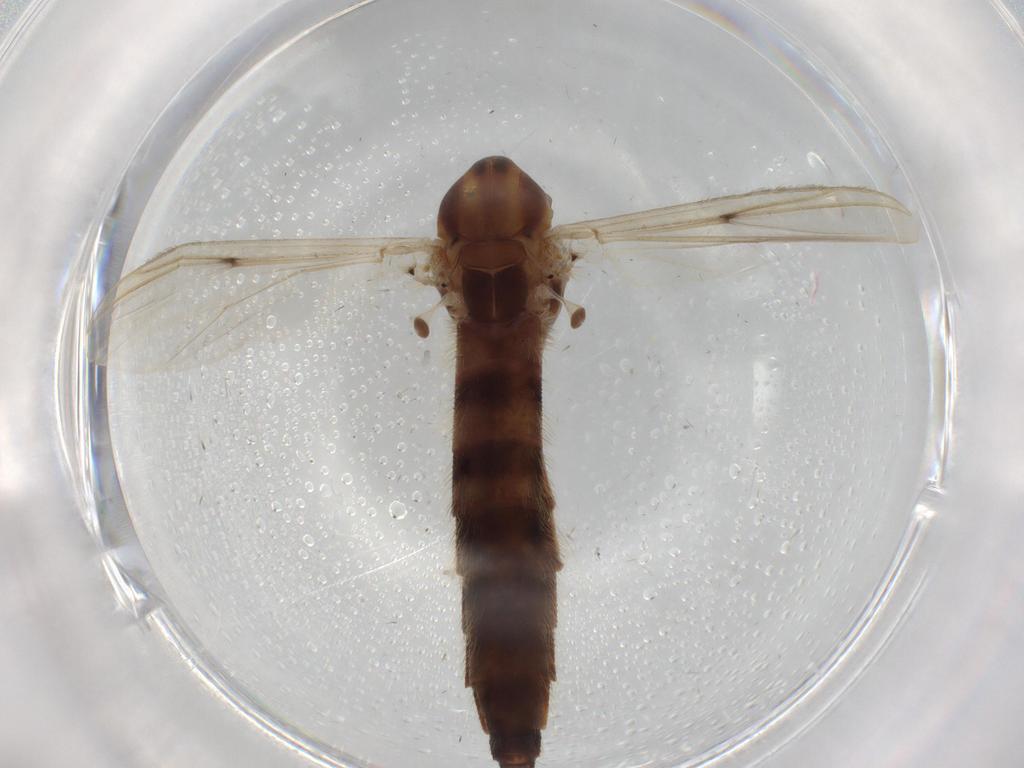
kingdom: Animalia
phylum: Arthropoda
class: Insecta
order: Diptera
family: Chironomidae
